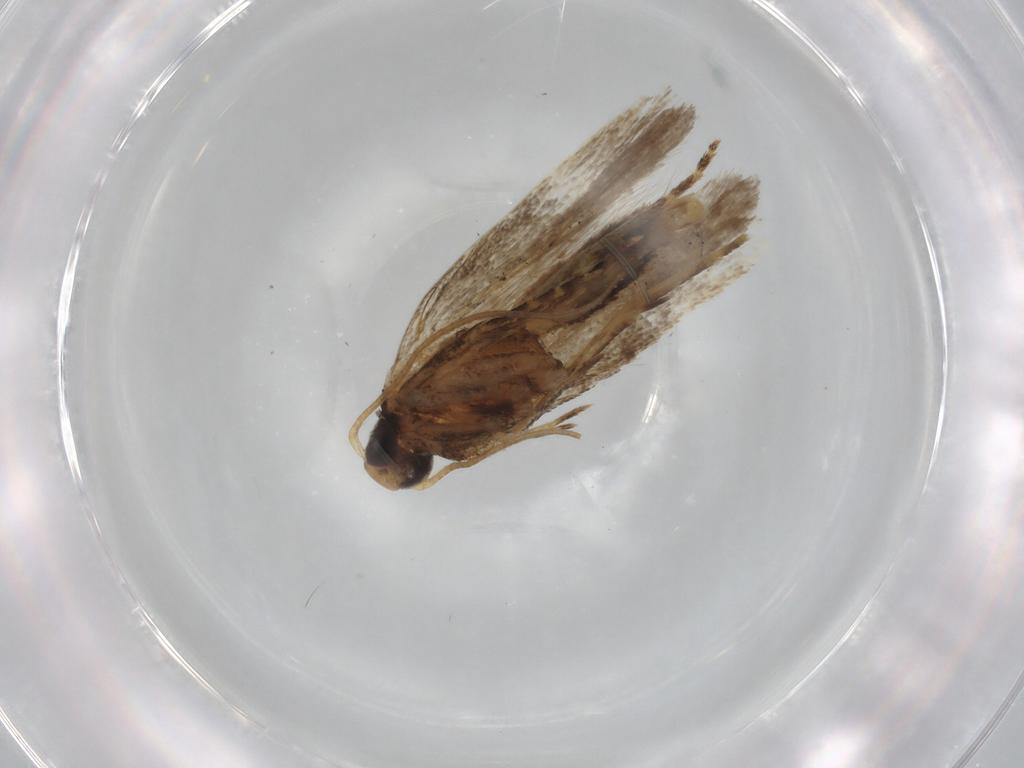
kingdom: Animalia
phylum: Arthropoda
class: Insecta
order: Lepidoptera
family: Gelechiidae
